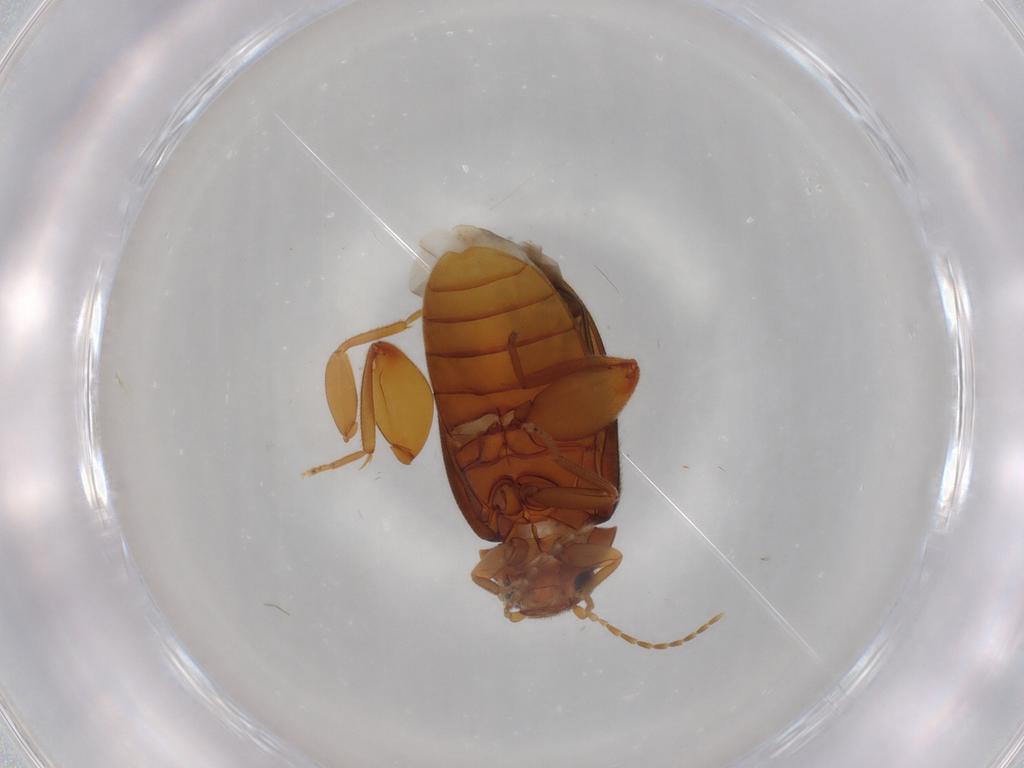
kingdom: Animalia
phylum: Arthropoda
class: Insecta
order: Coleoptera
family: Scirtidae
